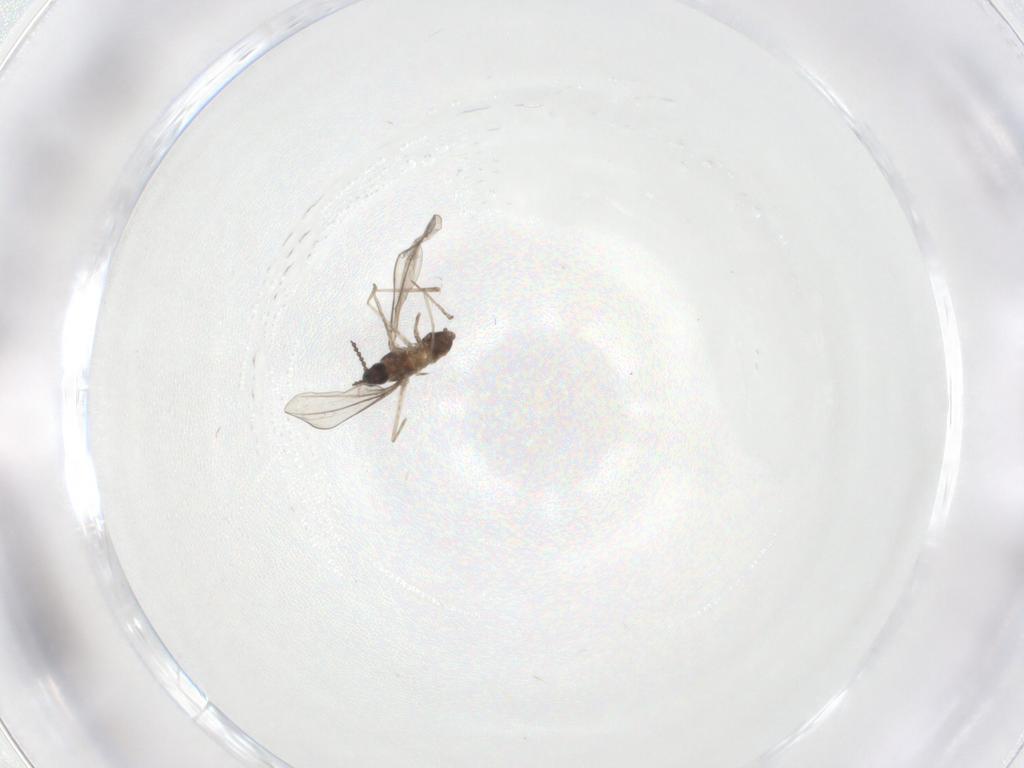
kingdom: Animalia
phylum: Arthropoda
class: Insecta
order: Diptera
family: Cecidomyiidae
